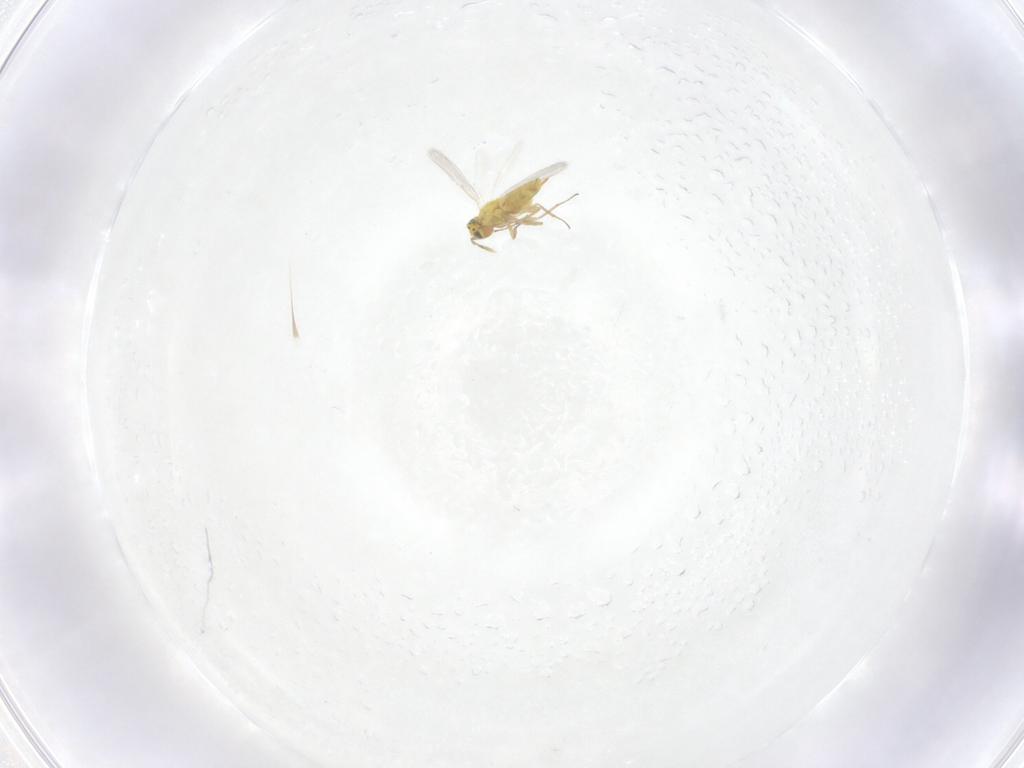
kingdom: Animalia
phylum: Arthropoda
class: Insecta
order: Hymenoptera
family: Aphelinidae
